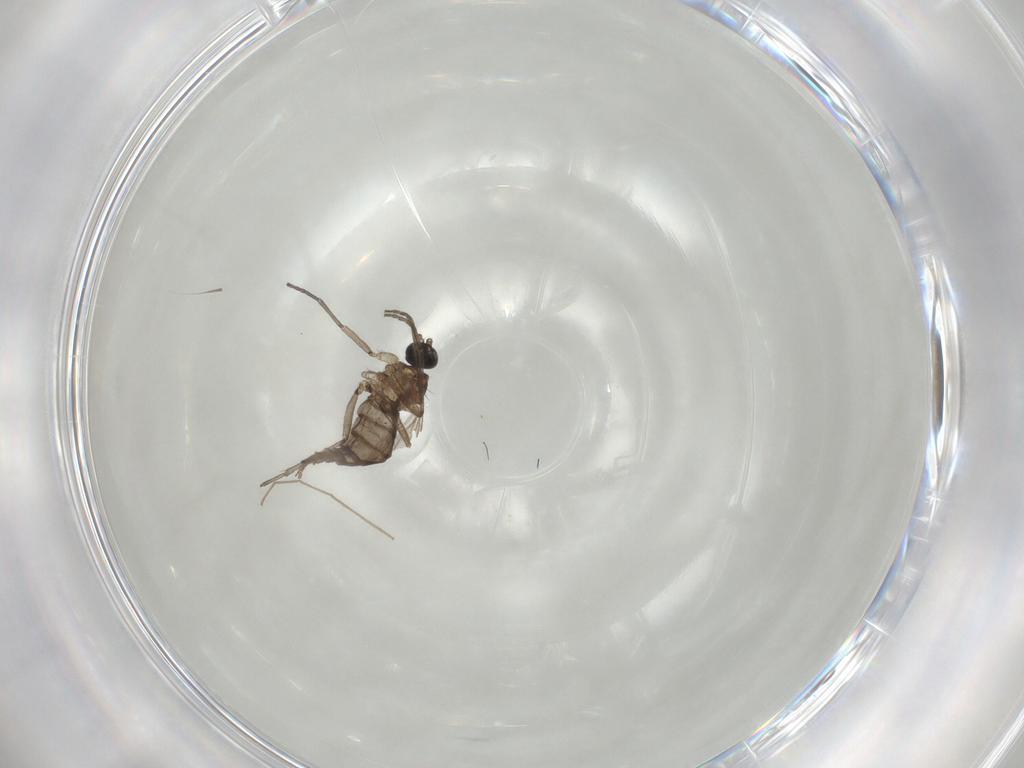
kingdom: Animalia
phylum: Arthropoda
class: Insecta
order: Diptera
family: Sciaridae
